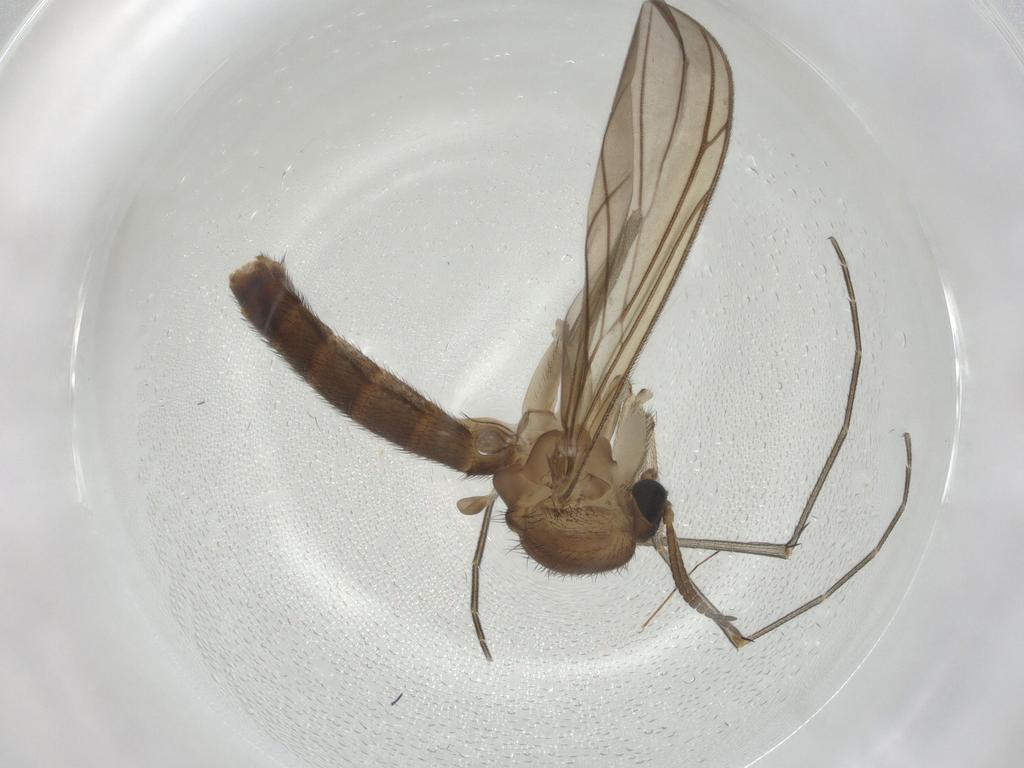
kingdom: Animalia
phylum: Arthropoda
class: Insecta
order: Diptera
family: Keroplatidae
